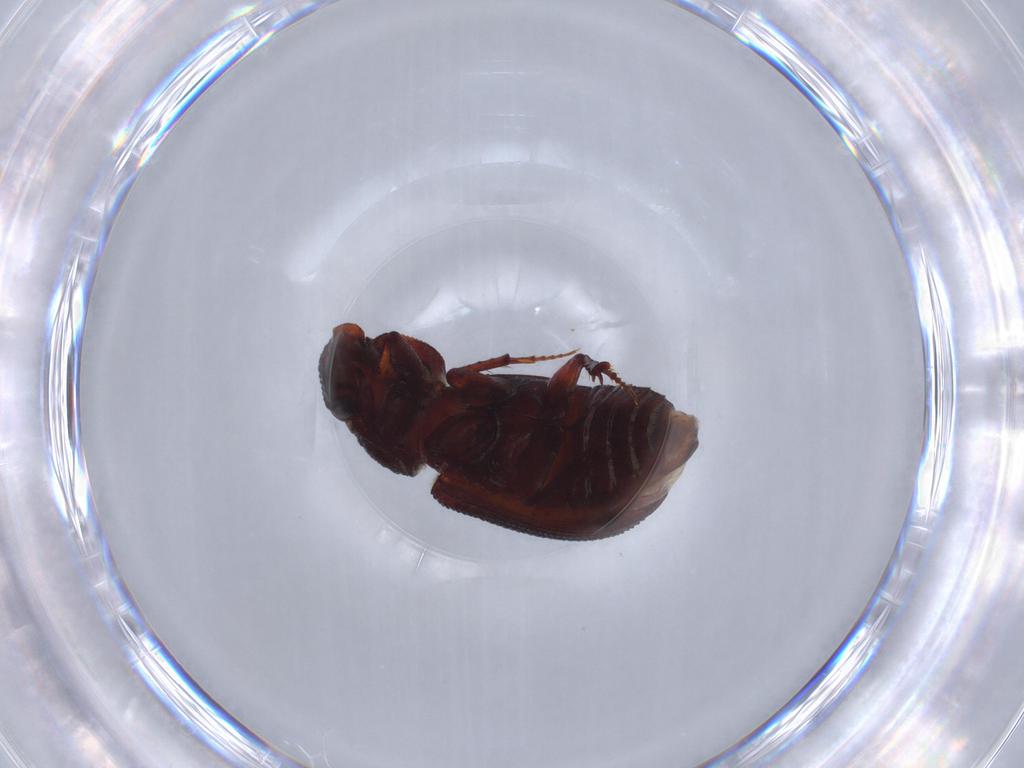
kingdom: Animalia
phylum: Arthropoda
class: Insecta
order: Coleoptera
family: Scarabaeidae
